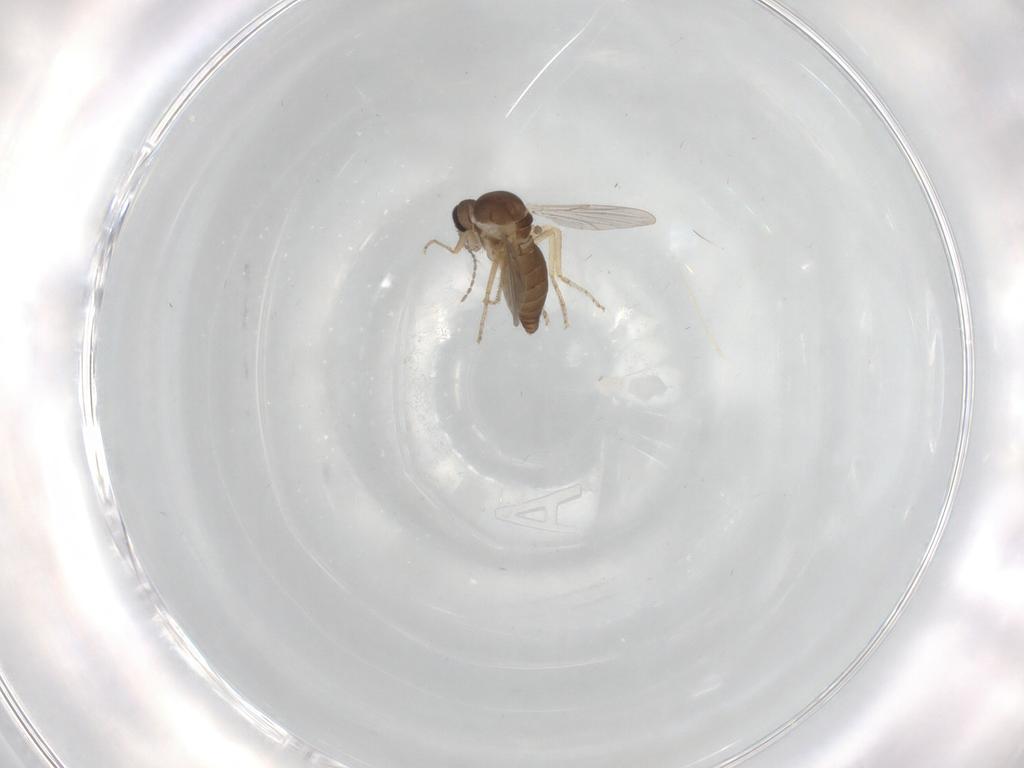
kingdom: Animalia
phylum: Arthropoda
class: Insecta
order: Diptera
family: Ceratopogonidae
